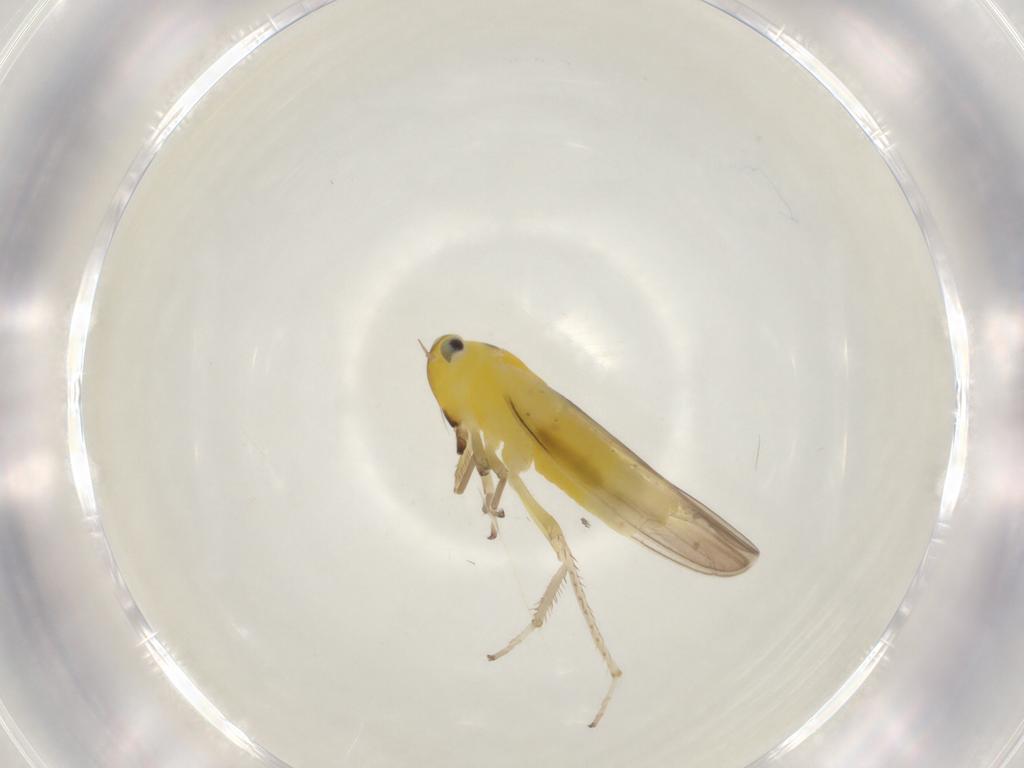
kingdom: Animalia
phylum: Arthropoda
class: Insecta
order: Hemiptera
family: Cicadellidae
